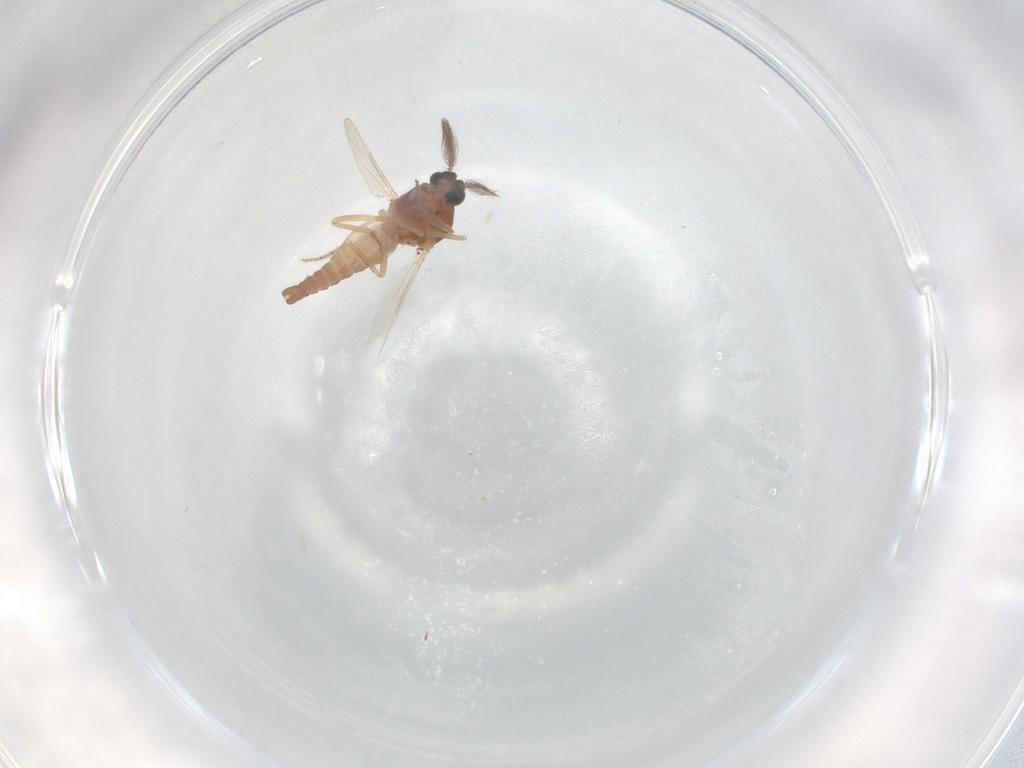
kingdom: Animalia
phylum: Arthropoda
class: Insecta
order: Diptera
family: Ceratopogonidae
